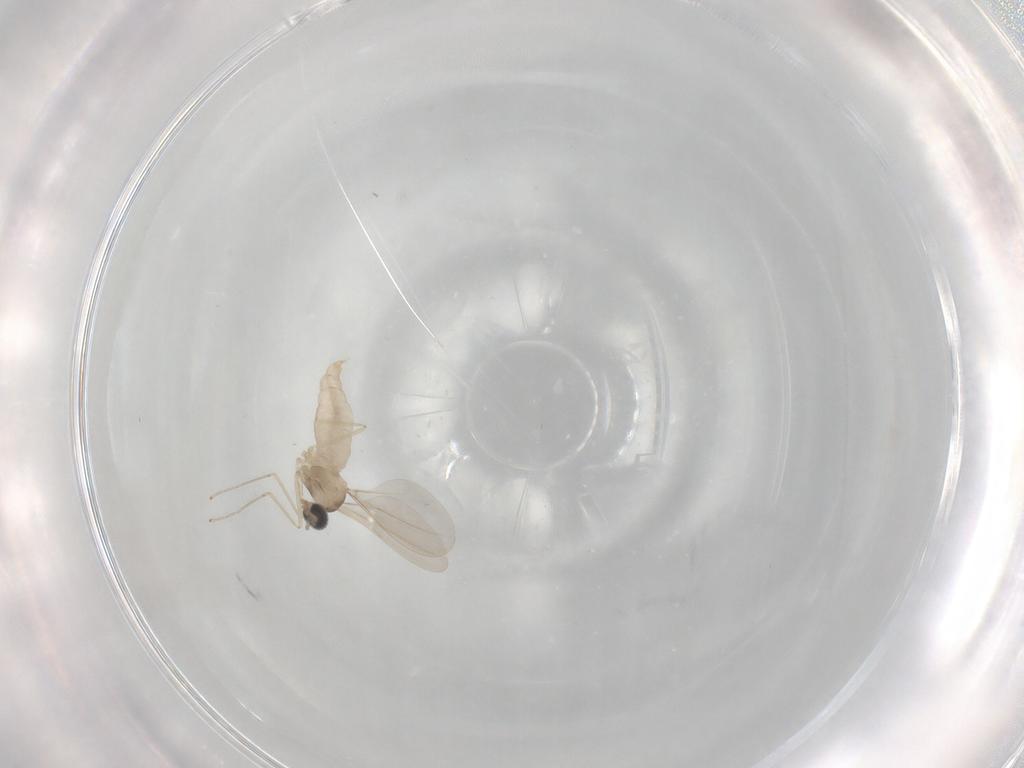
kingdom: Animalia
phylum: Arthropoda
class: Insecta
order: Diptera
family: Cecidomyiidae
